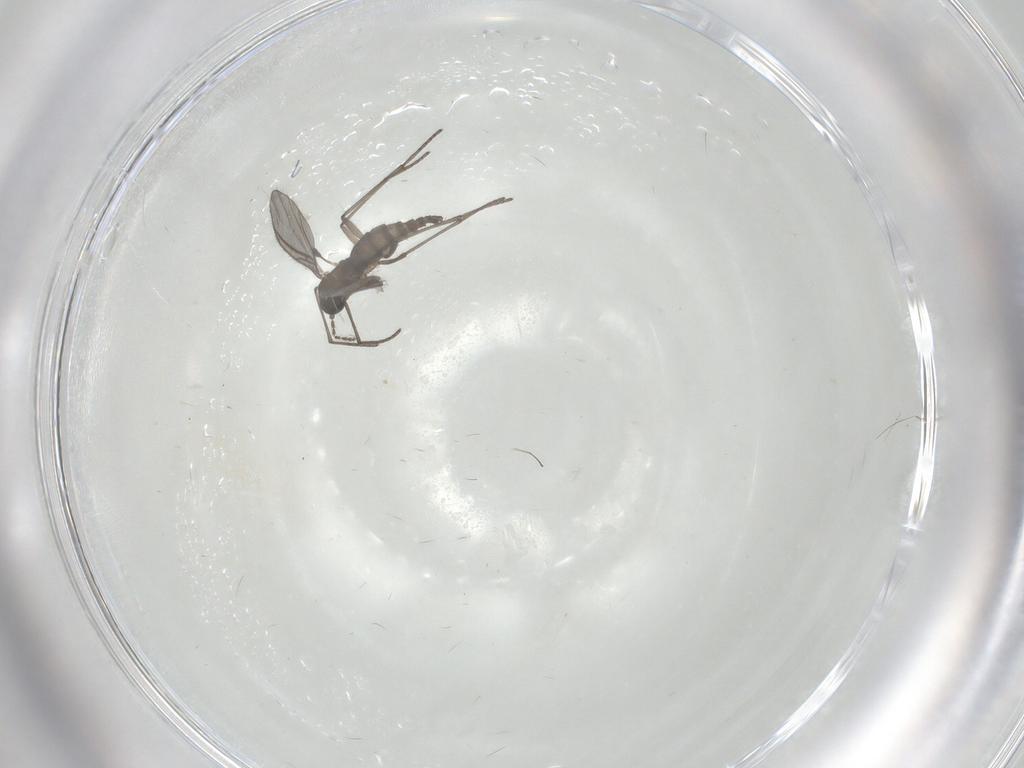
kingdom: Animalia
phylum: Arthropoda
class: Insecta
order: Diptera
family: Sciaridae
